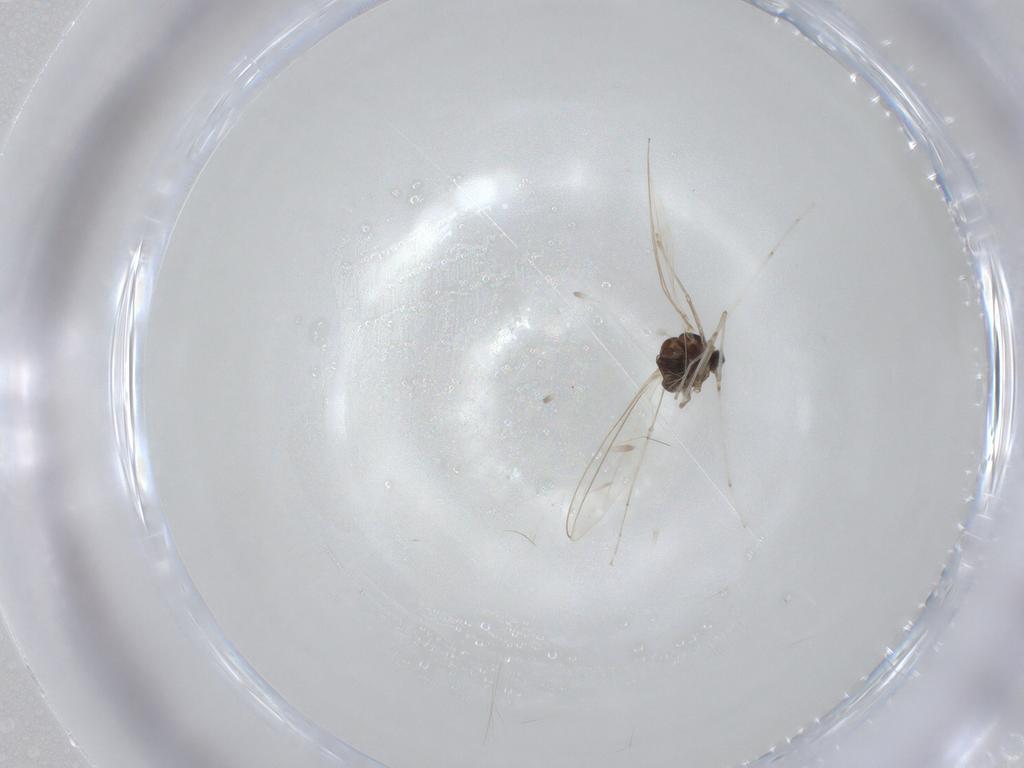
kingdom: Animalia
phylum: Arthropoda
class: Insecta
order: Diptera
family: Cecidomyiidae
